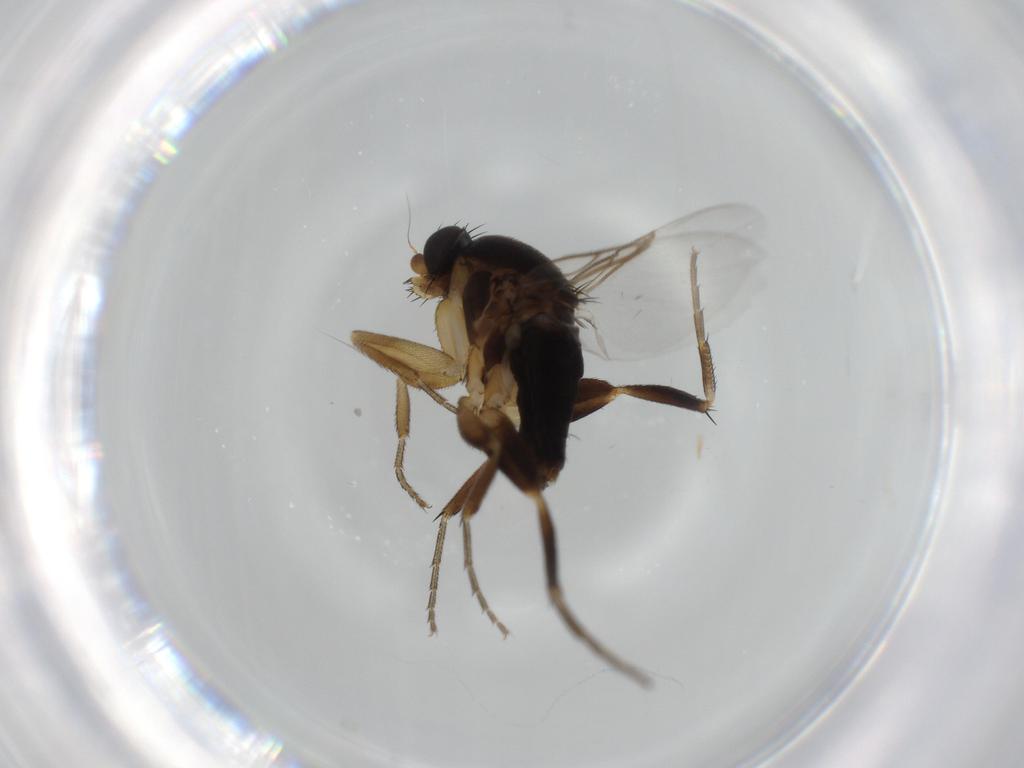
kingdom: Animalia
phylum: Arthropoda
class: Insecta
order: Diptera
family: Phoridae
